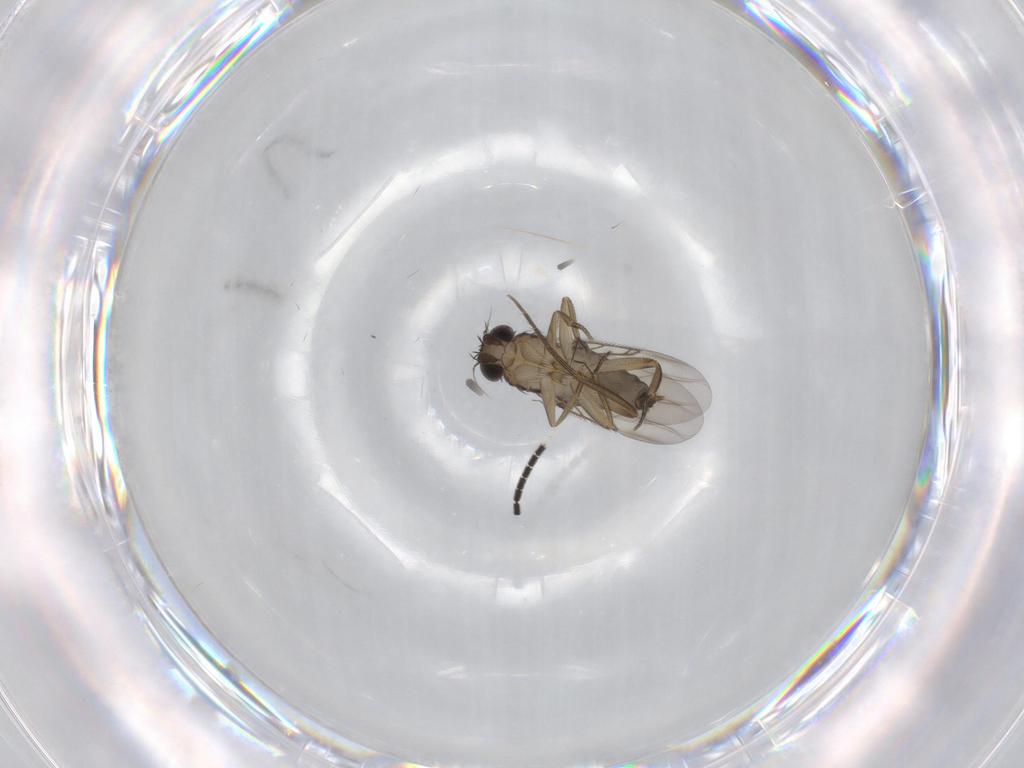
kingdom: Animalia
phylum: Arthropoda
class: Insecta
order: Diptera
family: Phoridae
